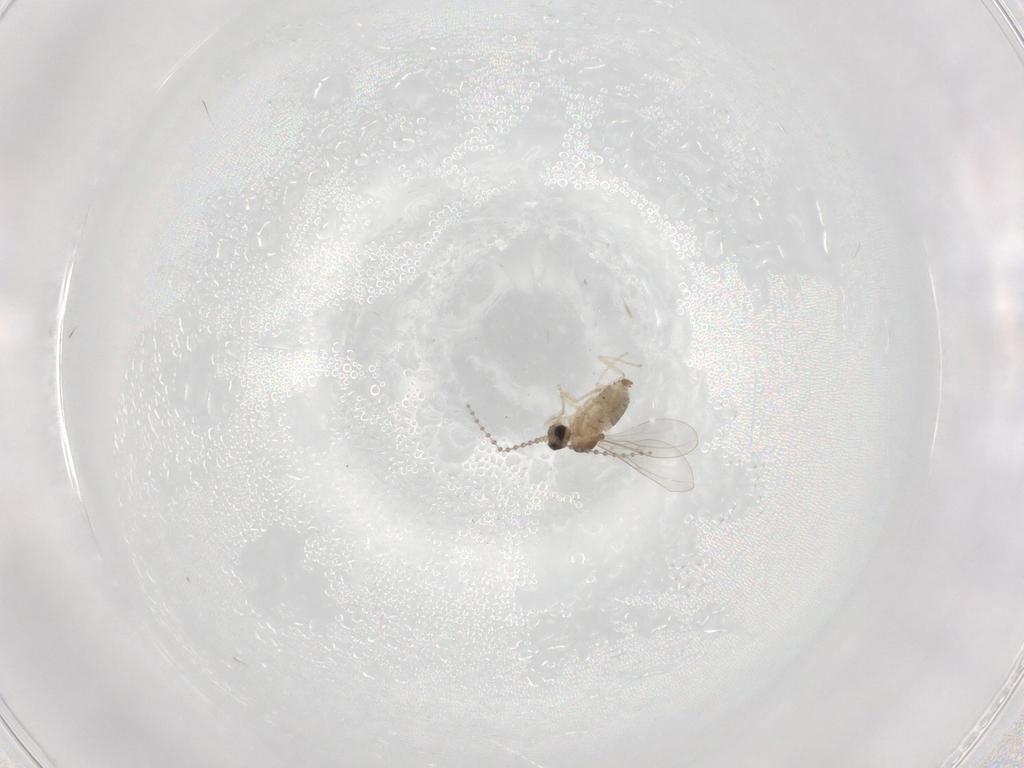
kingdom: Animalia
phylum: Arthropoda
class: Insecta
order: Diptera
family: Cecidomyiidae
